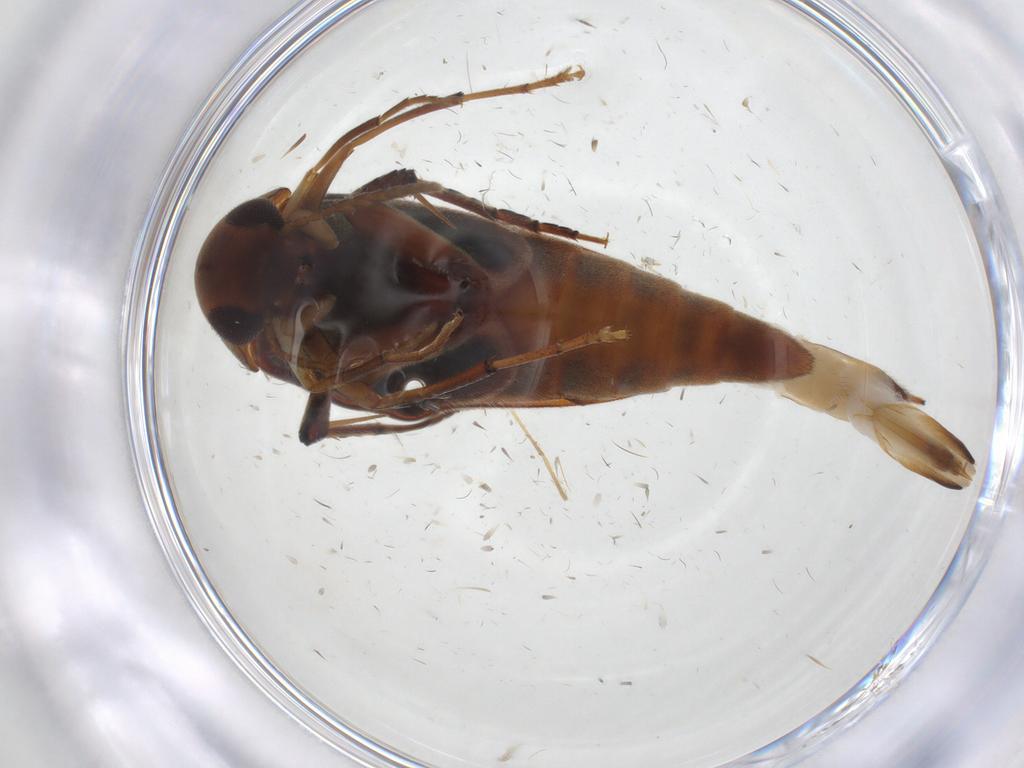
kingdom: Animalia
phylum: Arthropoda
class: Insecta
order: Coleoptera
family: Mordellidae
